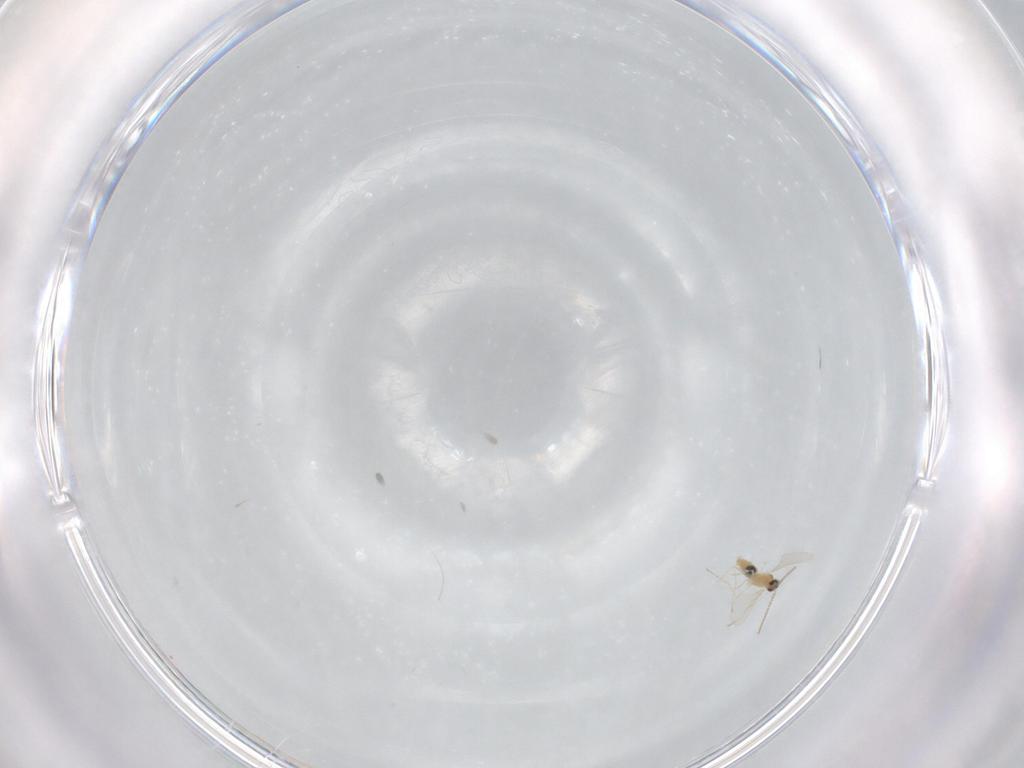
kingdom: Animalia
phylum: Arthropoda
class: Insecta
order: Diptera
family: Cecidomyiidae
